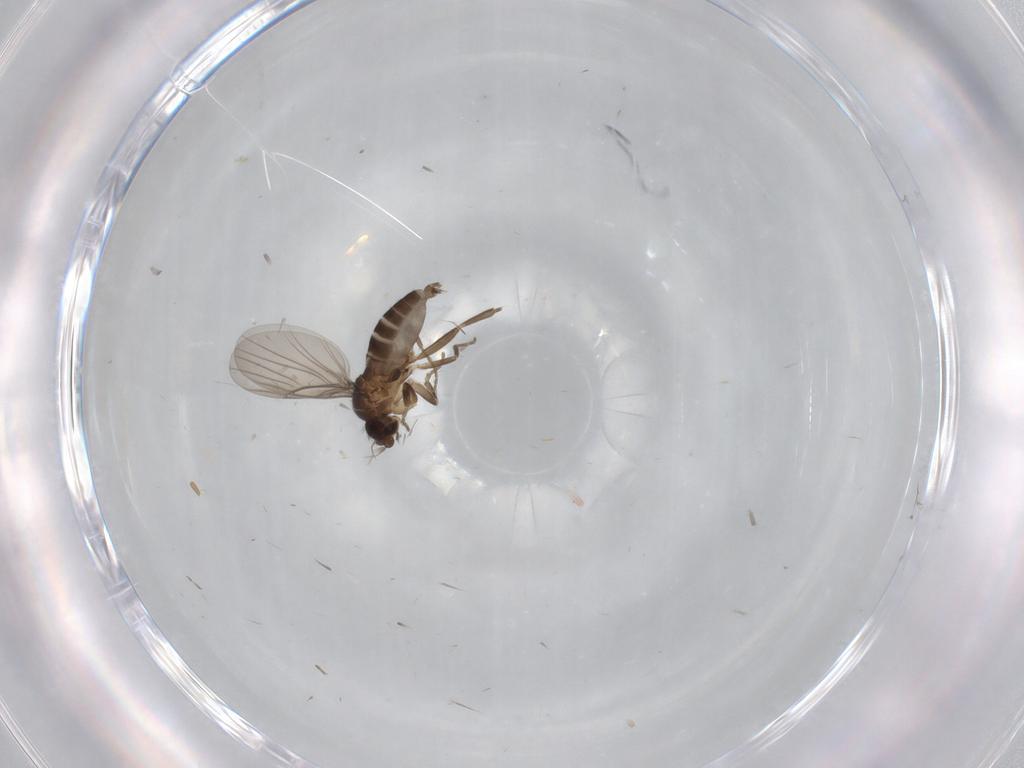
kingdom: Animalia
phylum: Arthropoda
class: Insecta
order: Diptera
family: Phoridae
